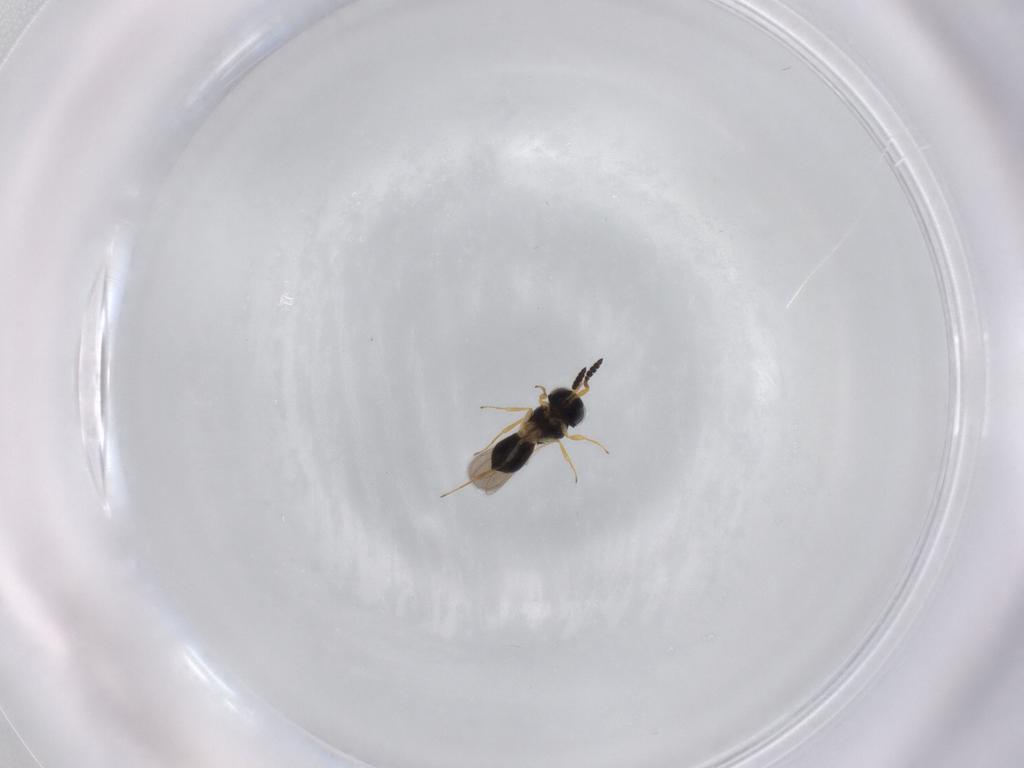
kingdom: Animalia
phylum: Arthropoda
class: Insecta
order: Hymenoptera
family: Scelionidae
